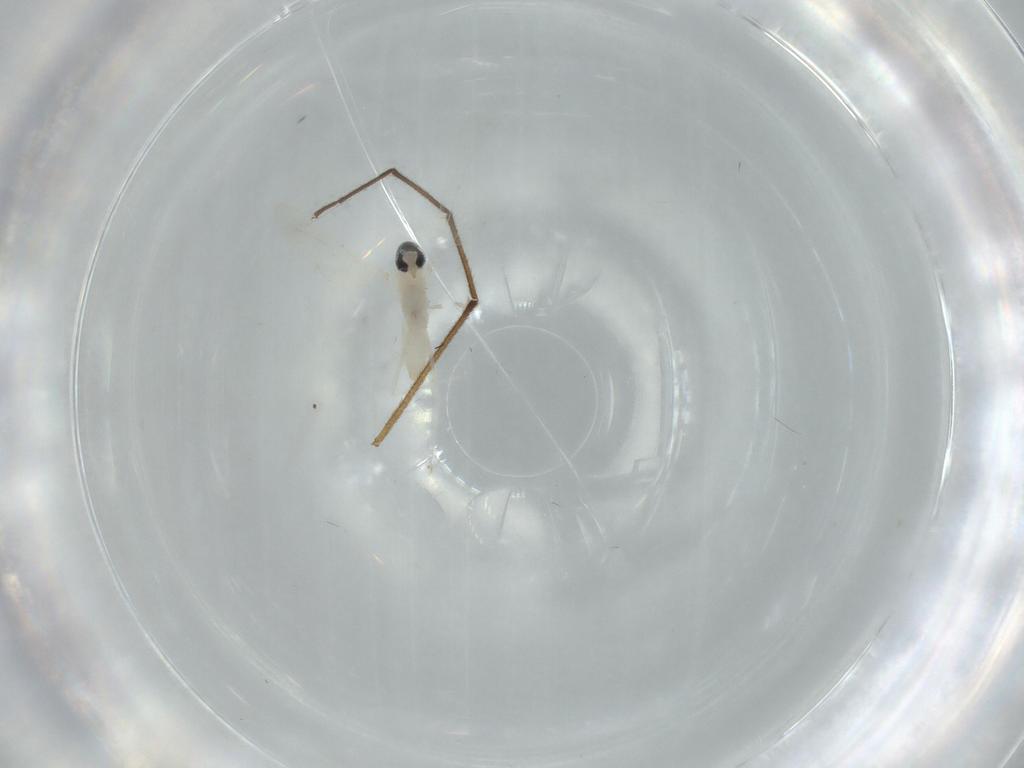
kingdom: Animalia
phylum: Arthropoda
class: Insecta
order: Diptera
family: Cecidomyiidae
